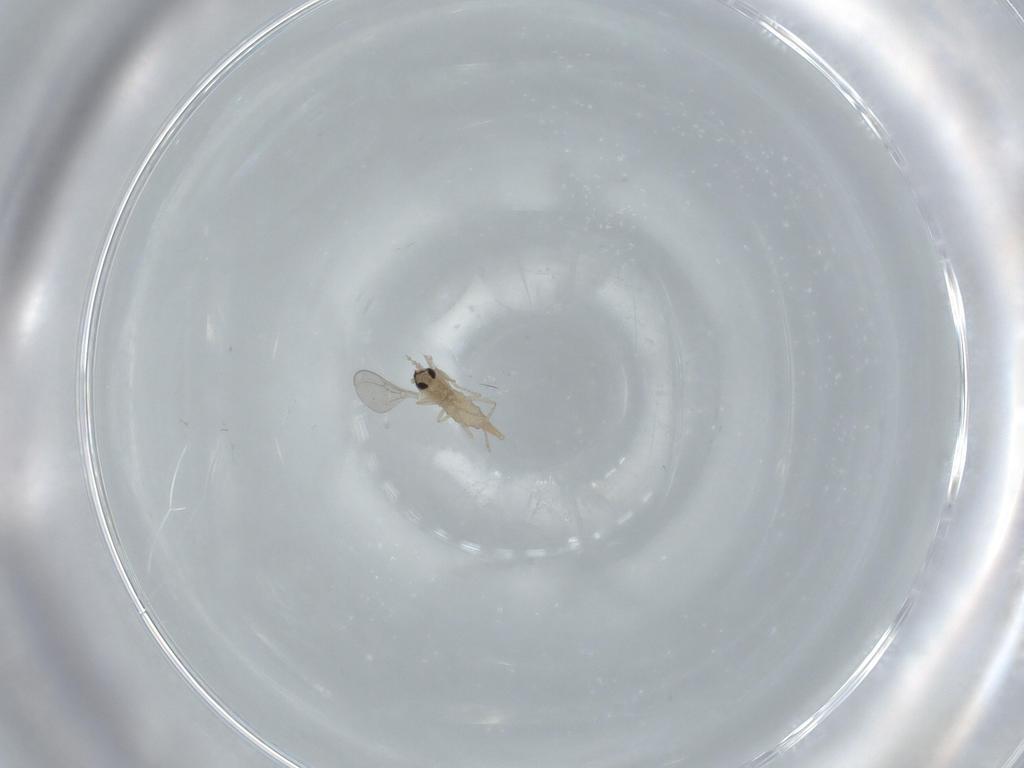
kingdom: Animalia
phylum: Arthropoda
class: Insecta
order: Diptera
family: Cecidomyiidae
